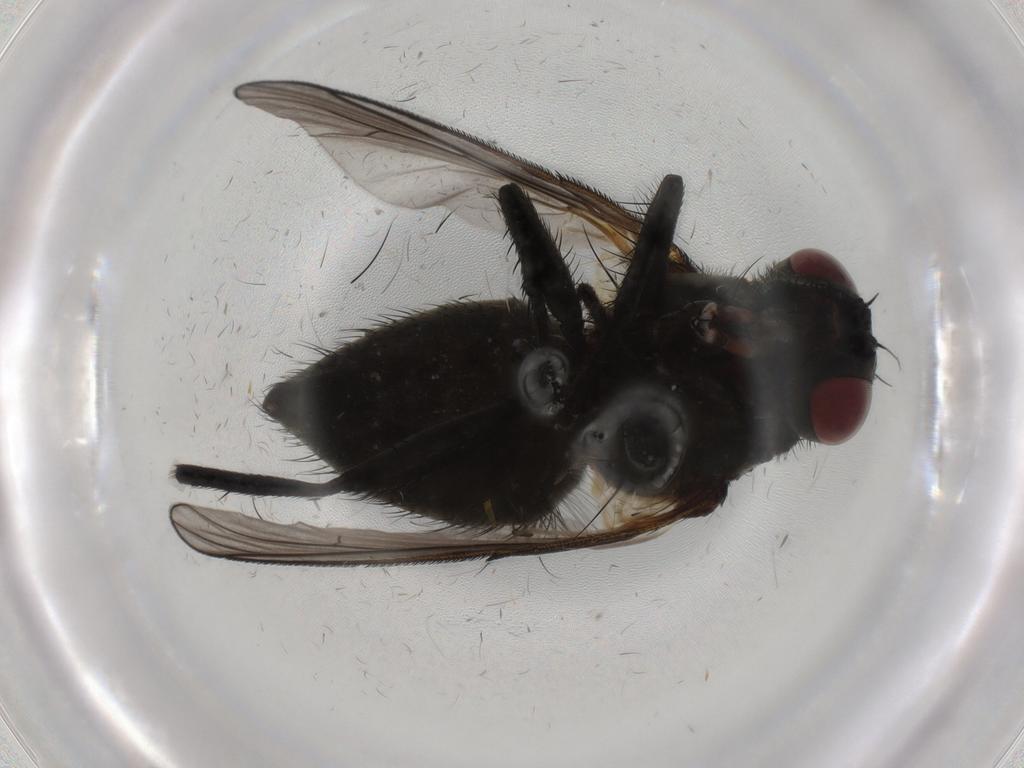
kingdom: Animalia
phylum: Arthropoda
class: Insecta
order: Diptera
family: Muscidae
